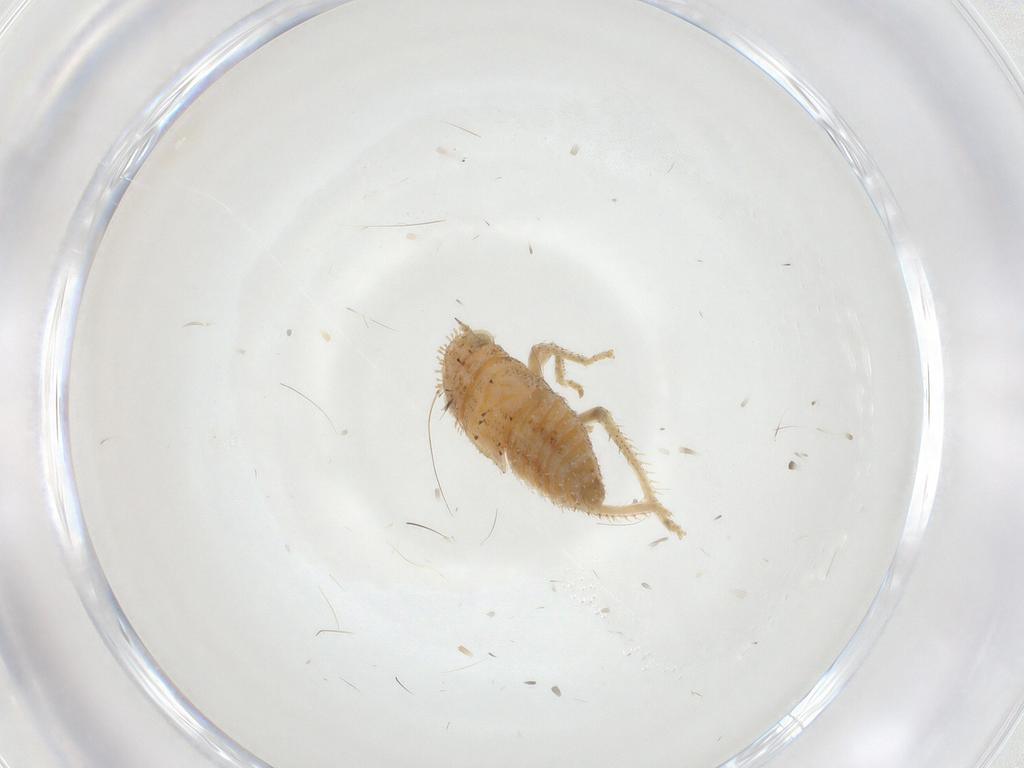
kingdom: Animalia
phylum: Arthropoda
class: Insecta
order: Hemiptera
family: Cicadellidae
